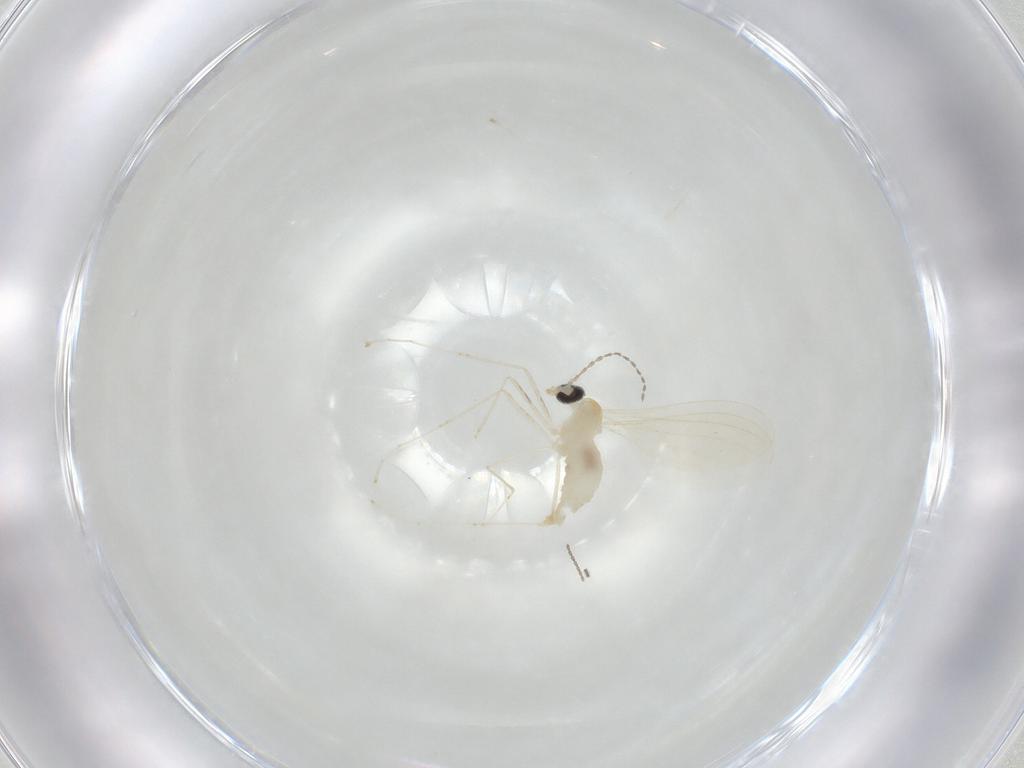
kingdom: Animalia
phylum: Arthropoda
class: Insecta
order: Diptera
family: Cecidomyiidae
